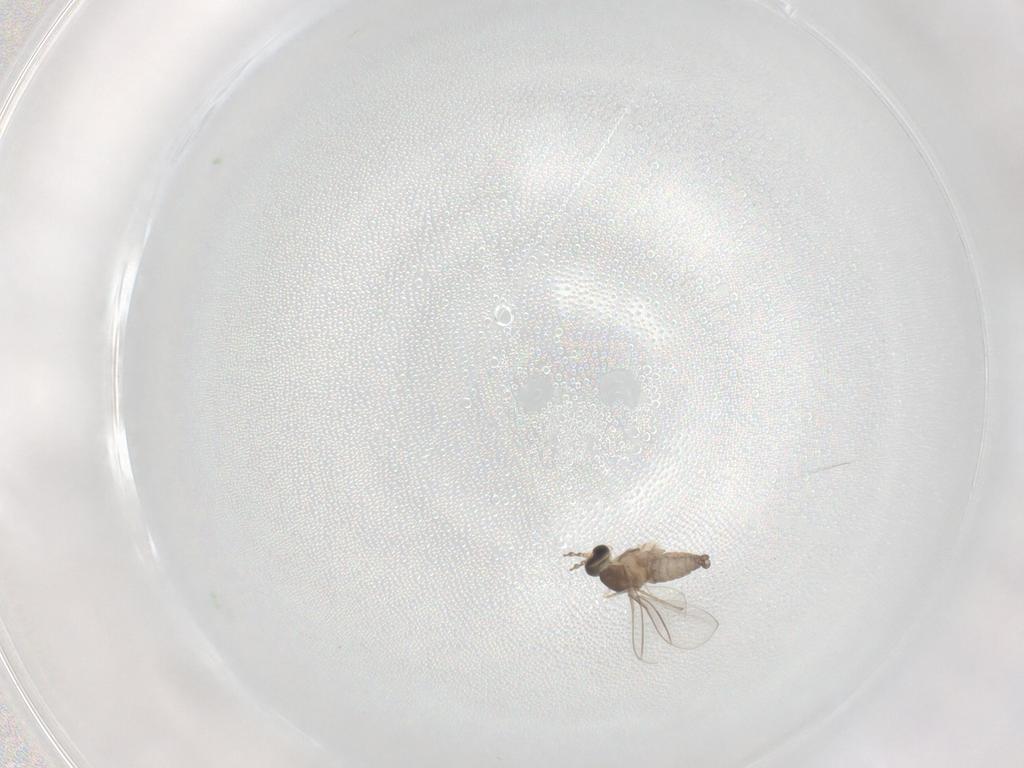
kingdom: Animalia
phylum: Arthropoda
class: Insecta
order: Diptera
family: Cecidomyiidae
